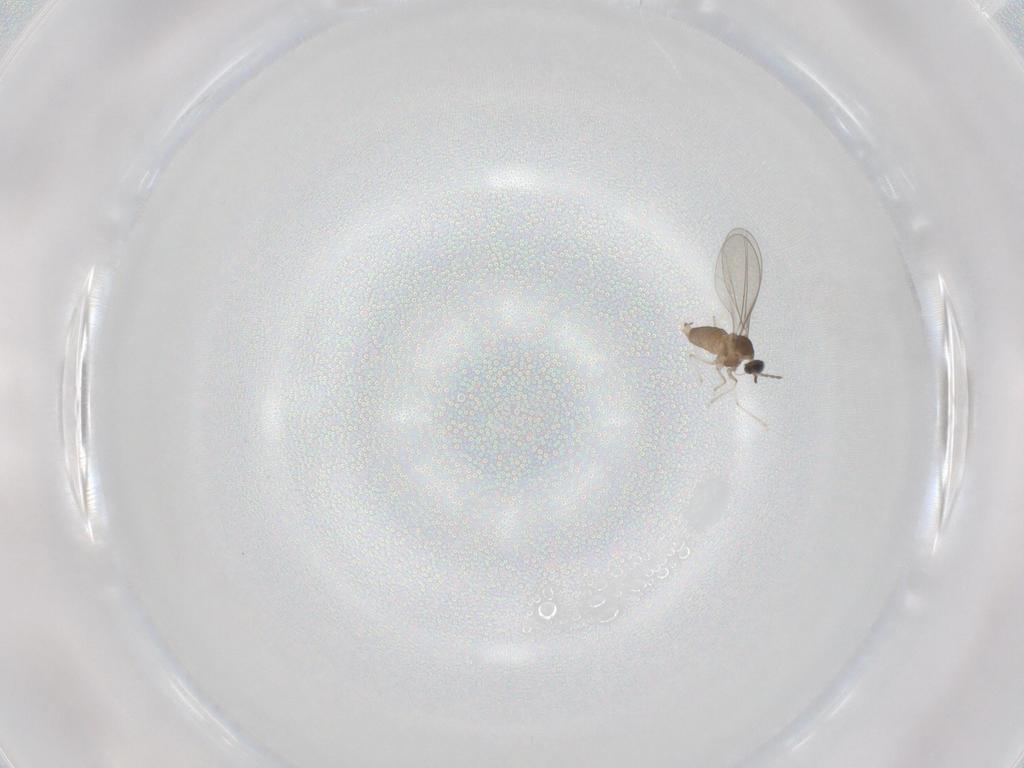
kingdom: Animalia
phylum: Arthropoda
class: Insecta
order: Diptera
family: Cecidomyiidae
